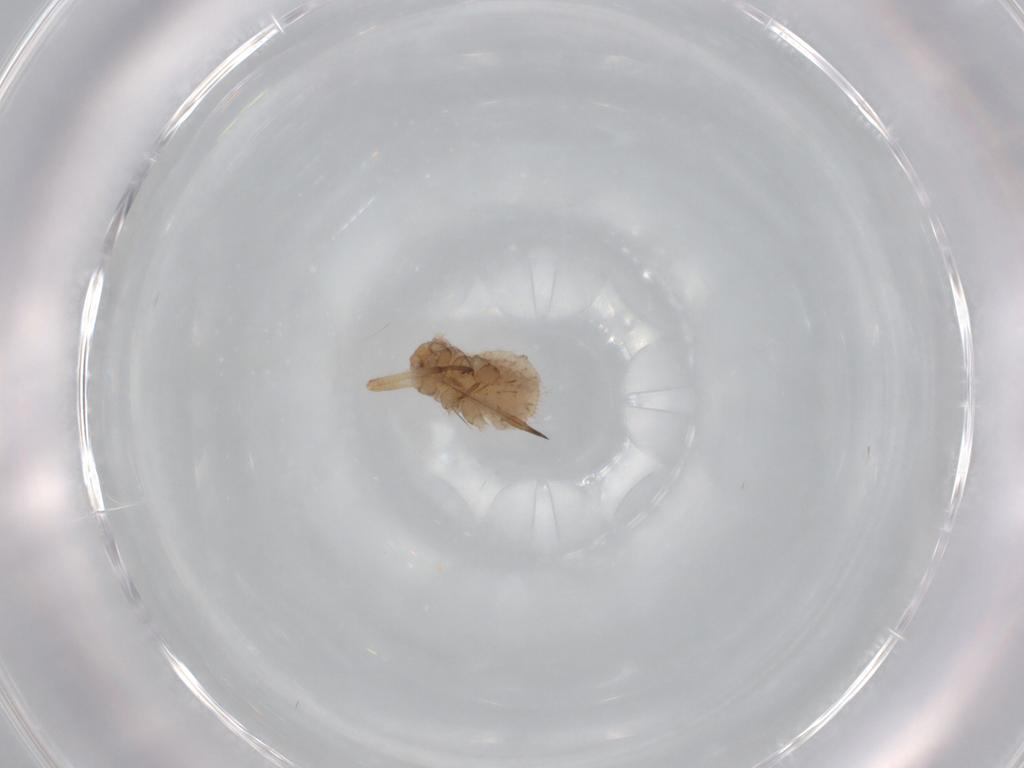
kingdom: Animalia
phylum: Arthropoda
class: Insecta
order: Hemiptera
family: Aphididae
